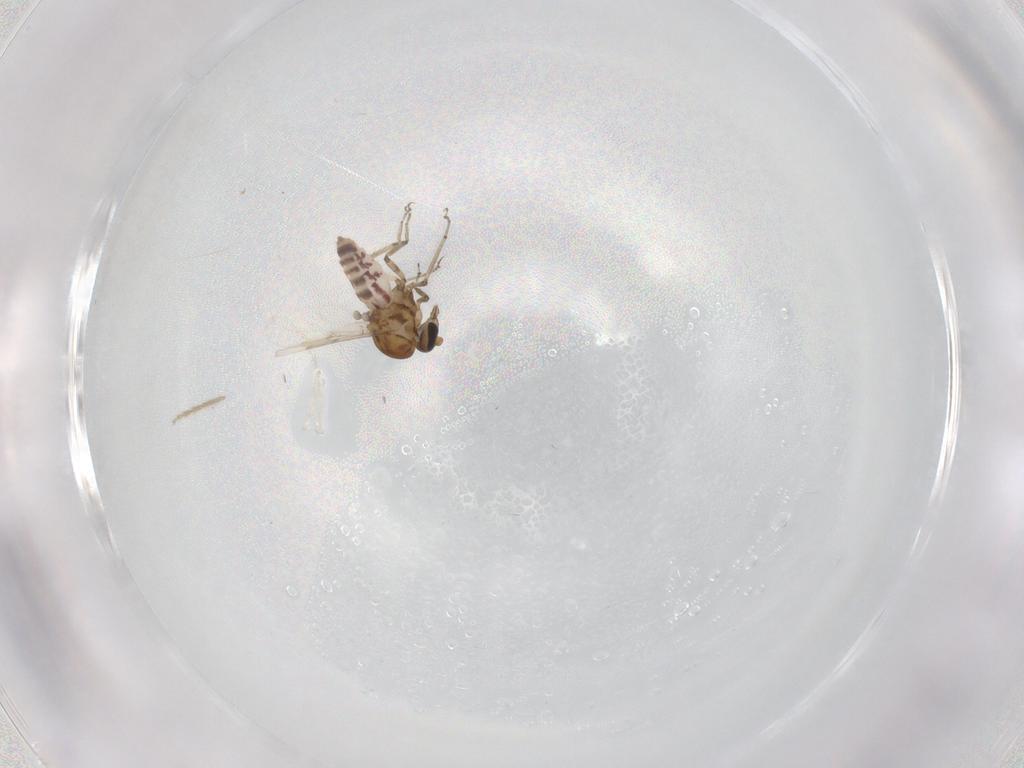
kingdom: Animalia
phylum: Arthropoda
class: Insecta
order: Diptera
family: Ceratopogonidae
